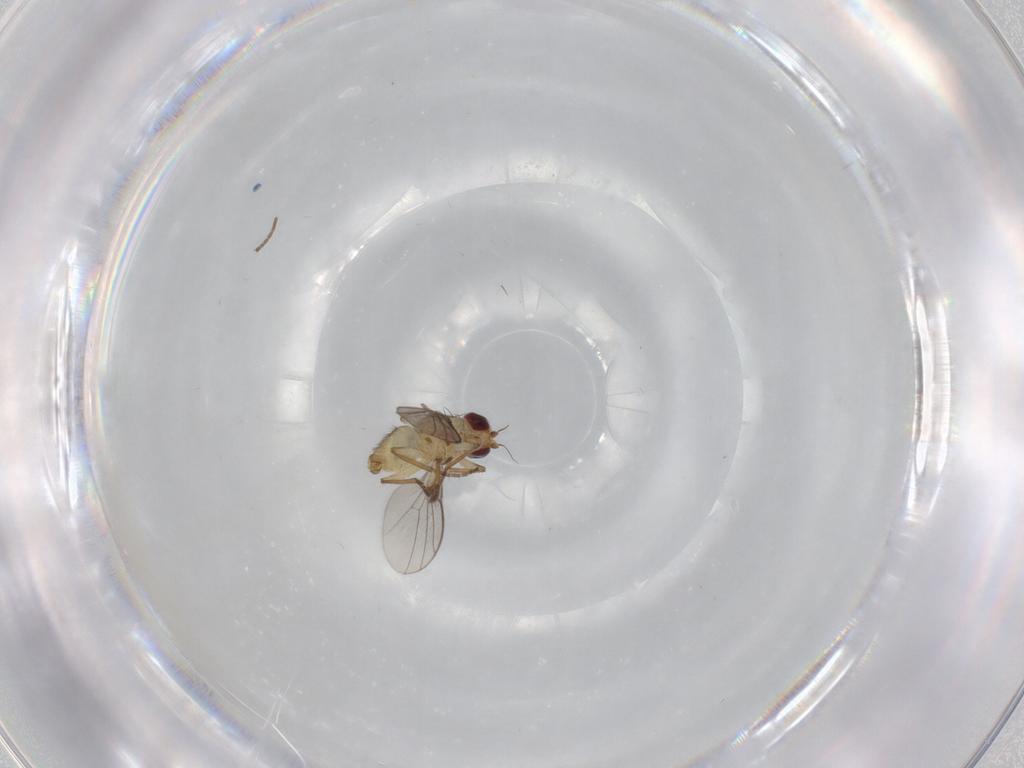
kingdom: Animalia
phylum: Arthropoda
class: Insecta
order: Diptera
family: Agromyzidae
